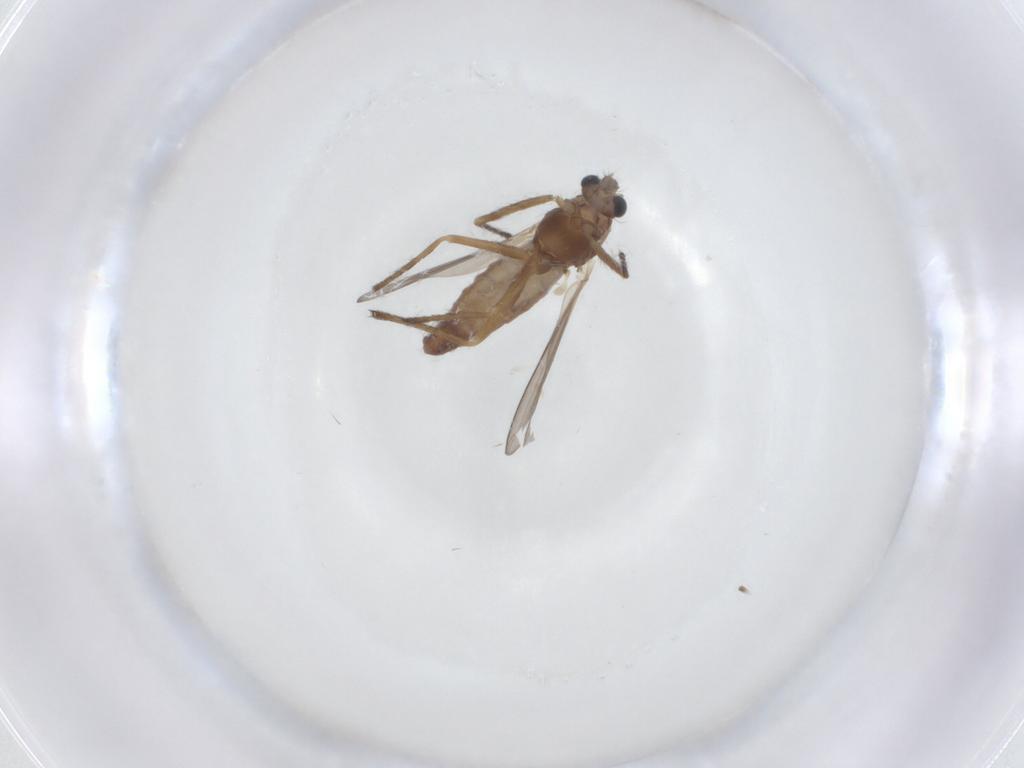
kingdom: Animalia
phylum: Arthropoda
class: Insecta
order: Diptera
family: Chironomidae
